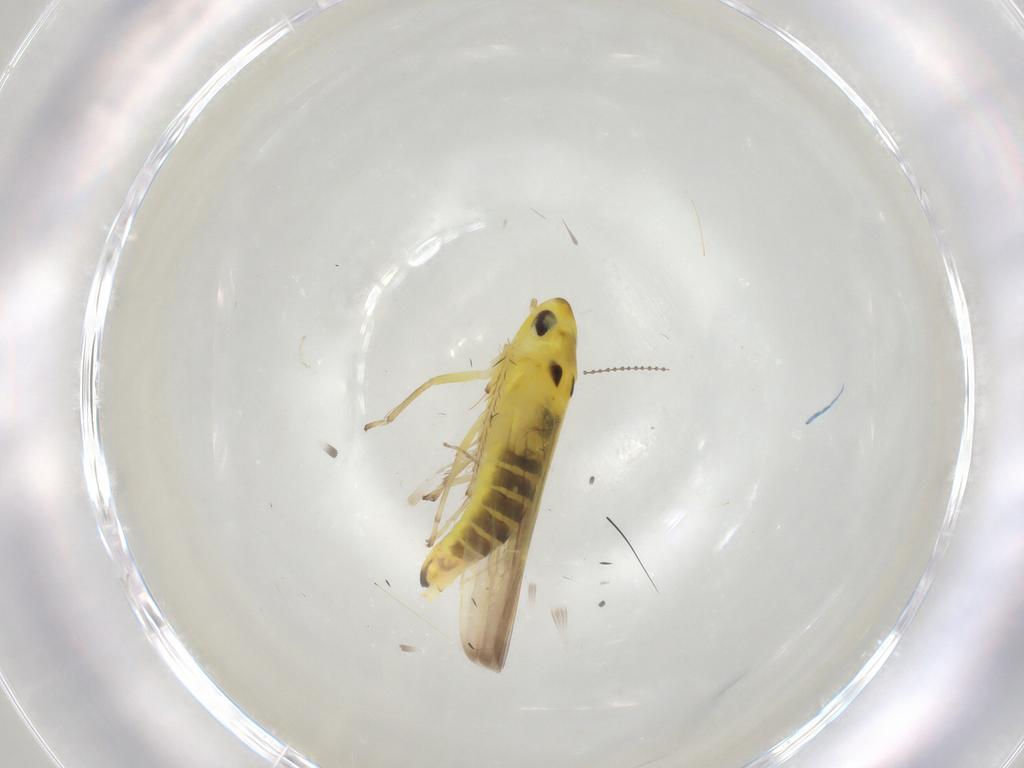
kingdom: Animalia
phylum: Arthropoda
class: Insecta
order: Hemiptera
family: Cicadellidae
